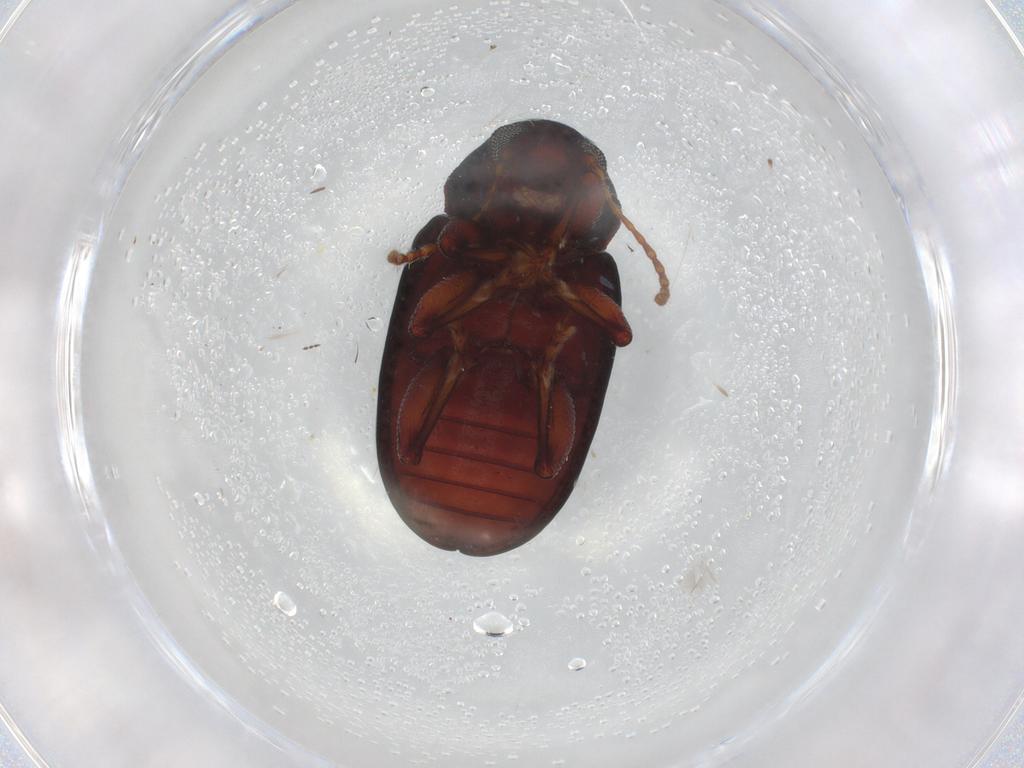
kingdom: Animalia
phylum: Arthropoda
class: Insecta
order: Coleoptera
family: Chrysomelidae
